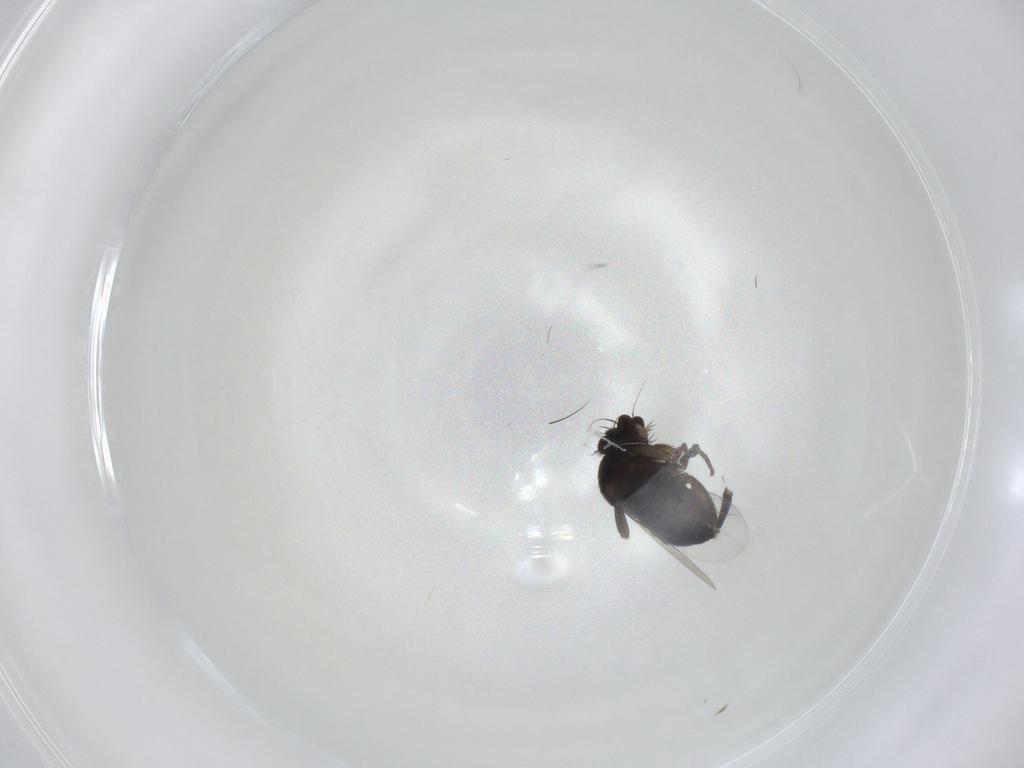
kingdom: Animalia
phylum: Arthropoda
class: Insecta
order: Diptera
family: Phoridae
